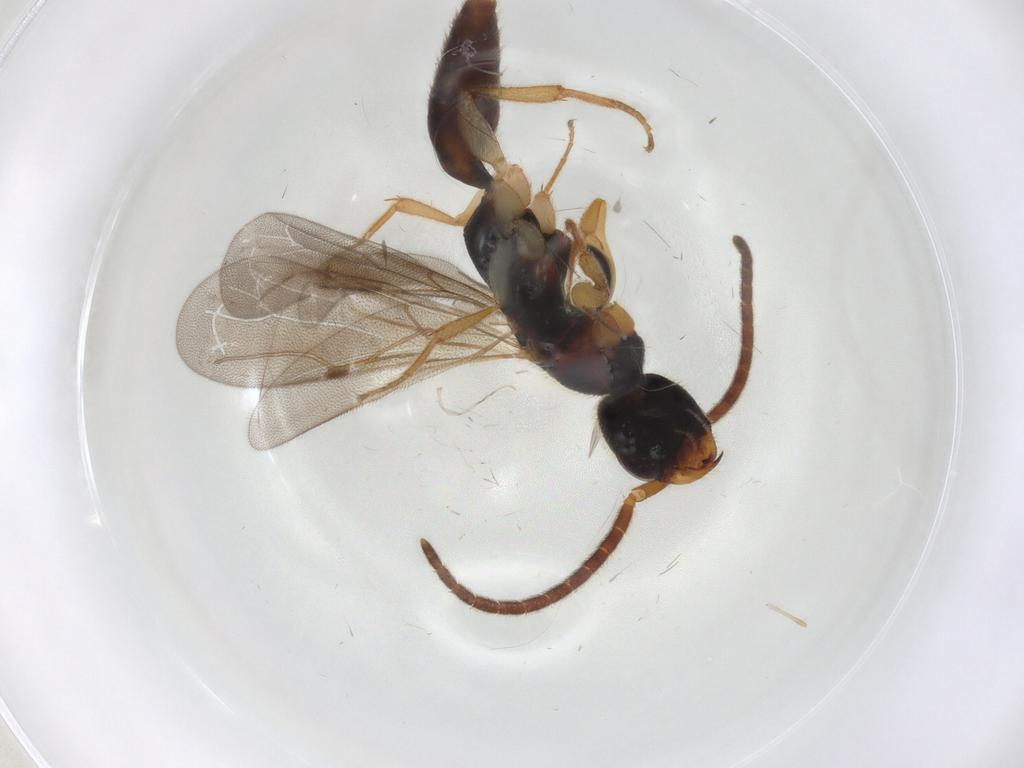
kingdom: Animalia
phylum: Arthropoda
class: Insecta
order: Hymenoptera
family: Bethylidae
